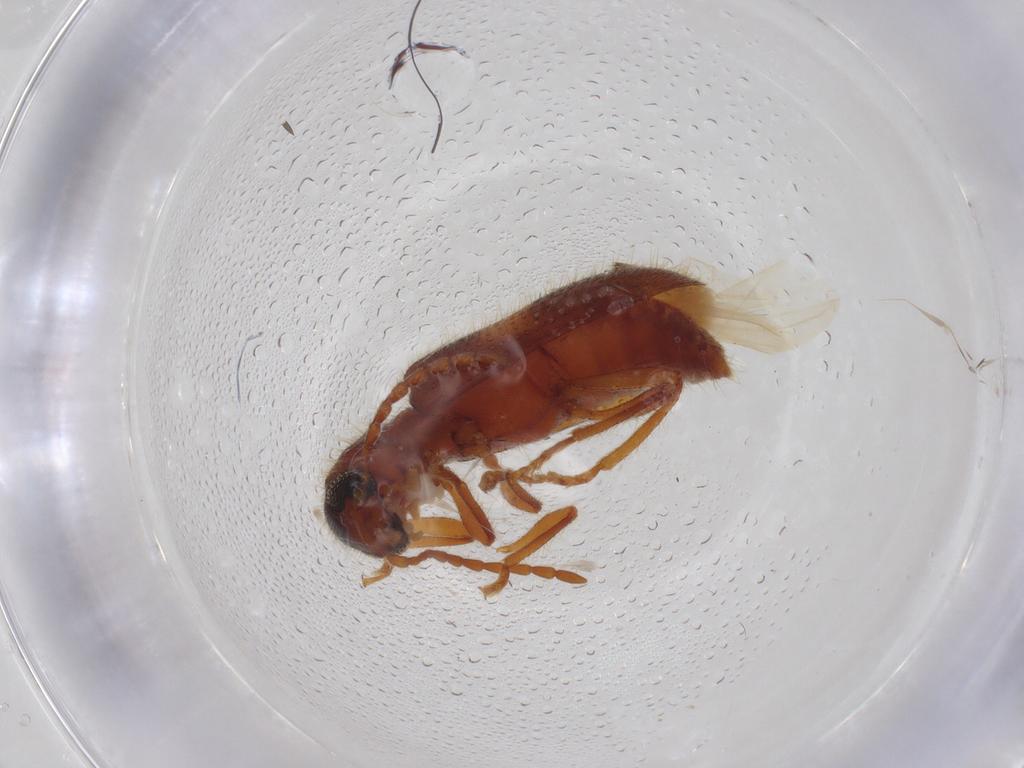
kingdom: Animalia
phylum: Arthropoda
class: Insecta
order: Coleoptera
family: Cleridae
